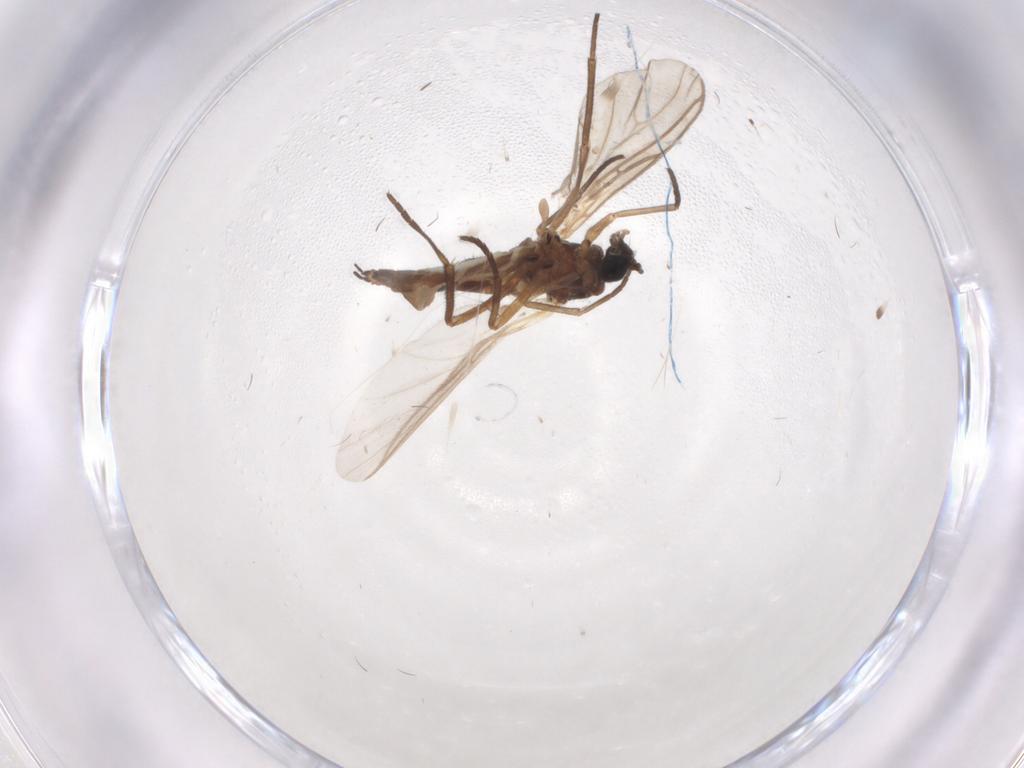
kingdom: Animalia
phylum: Arthropoda
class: Insecta
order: Diptera
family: Sciaridae
